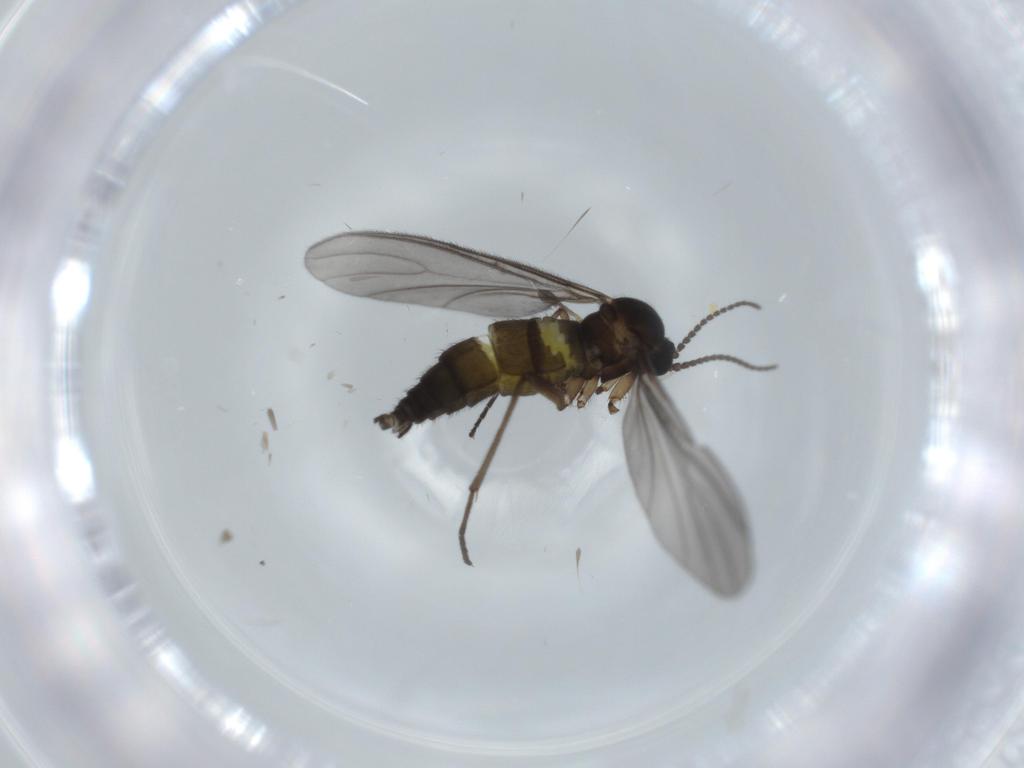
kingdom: Animalia
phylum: Arthropoda
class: Insecta
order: Diptera
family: Sciaridae
